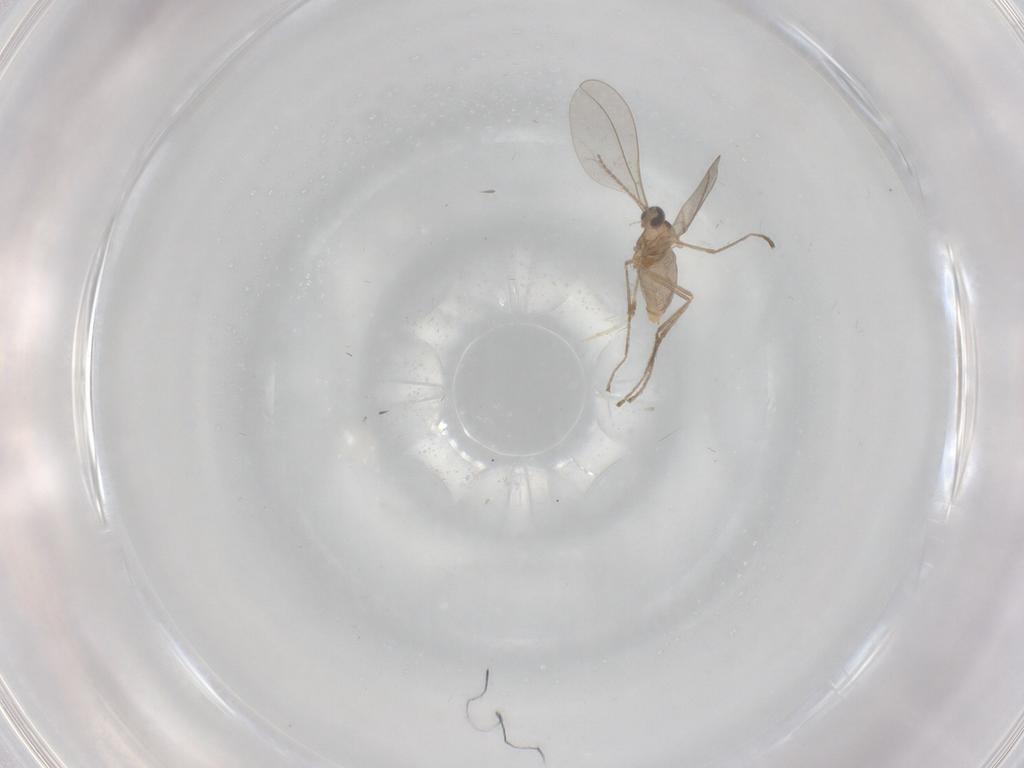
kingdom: Animalia
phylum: Arthropoda
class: Insecta
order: Diptera
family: Cecidomyiidae
